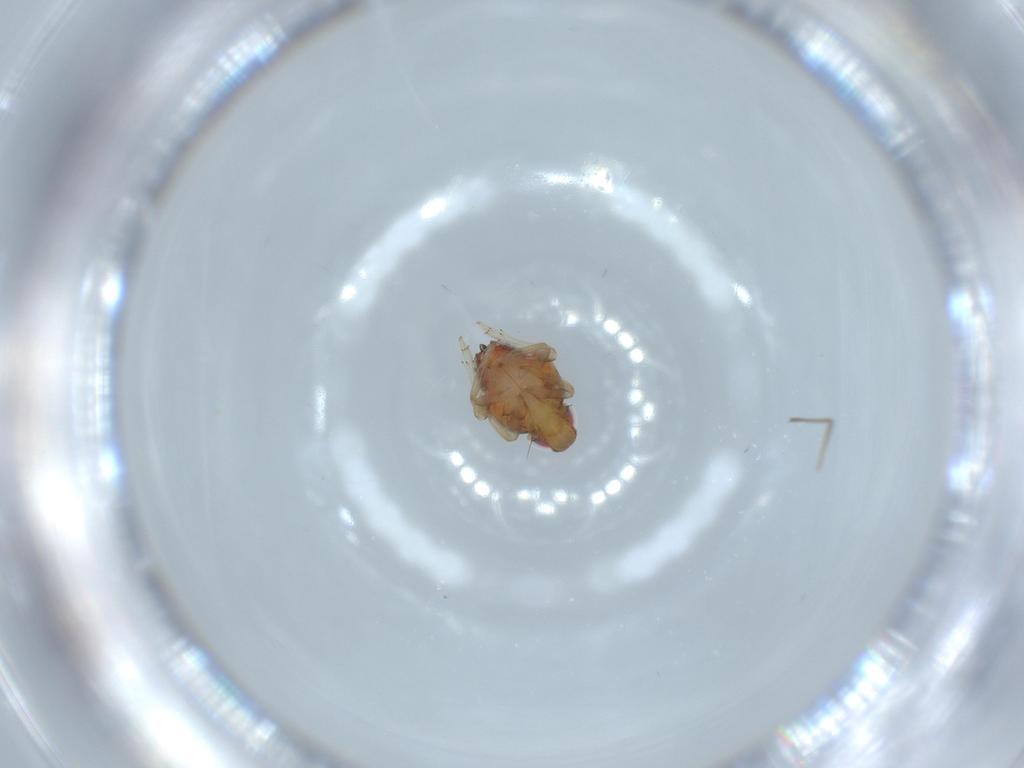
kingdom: Animalia
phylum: Arthropoda
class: Insecta
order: Hemiptera
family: Issidae
